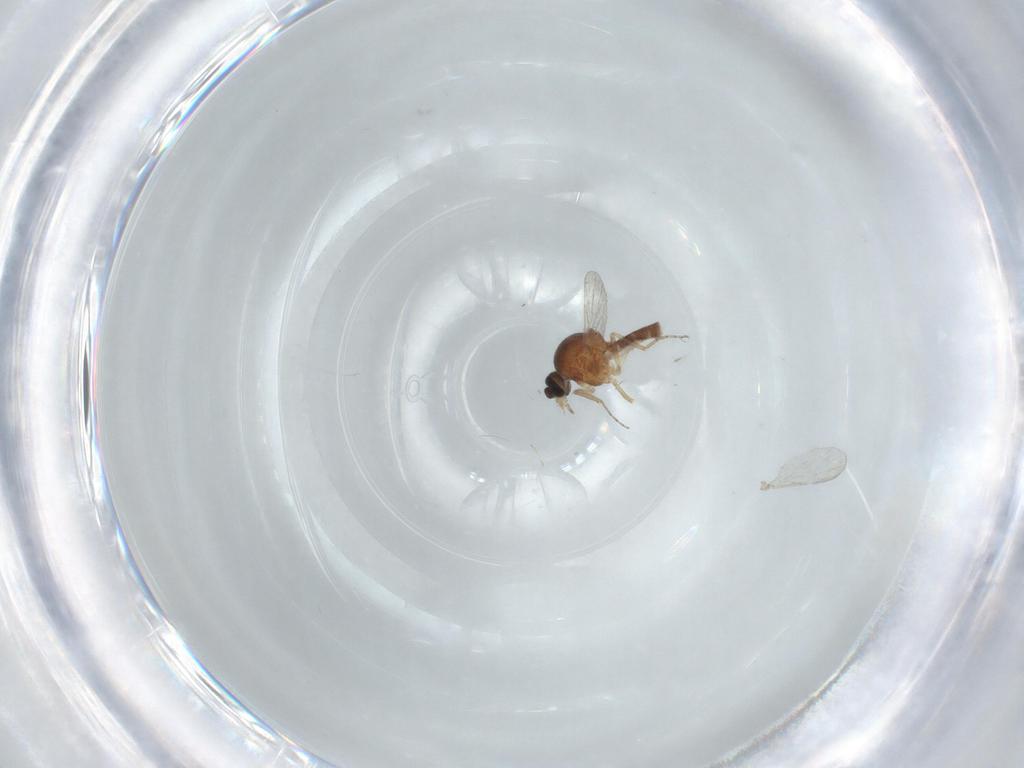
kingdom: Animalia
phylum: Arthropoda
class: Insecta
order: Diptera
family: Ceratopogonidae
